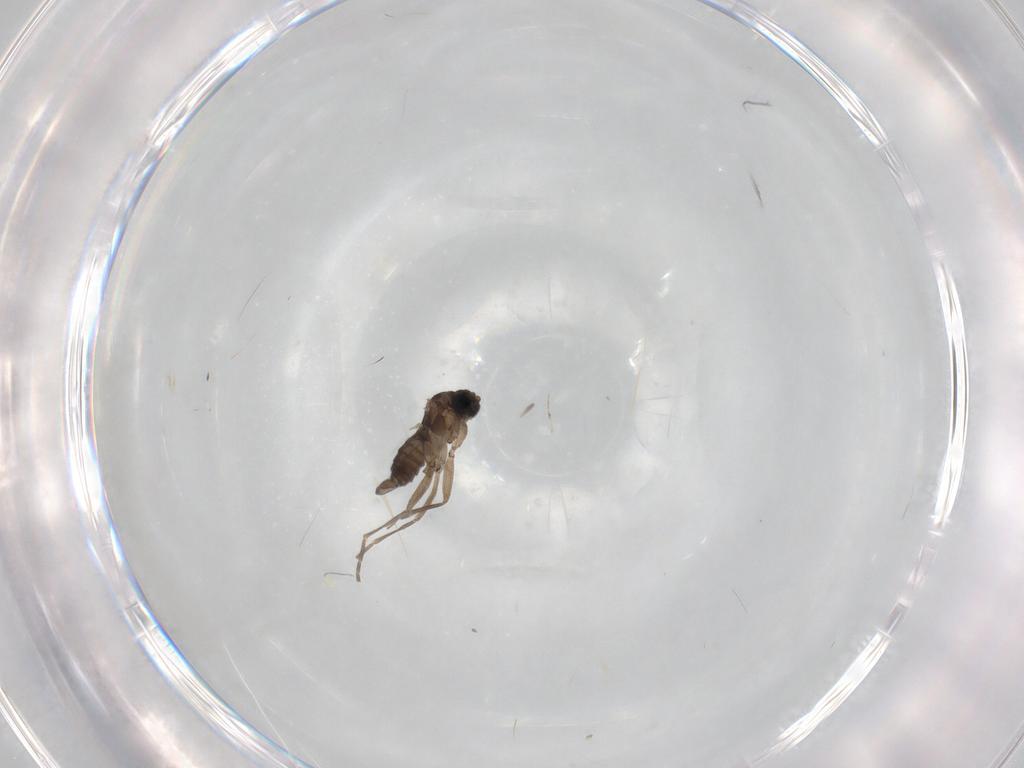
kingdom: Animalia
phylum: Arthropoda
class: Insecta
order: Diptera
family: Sciaridae
